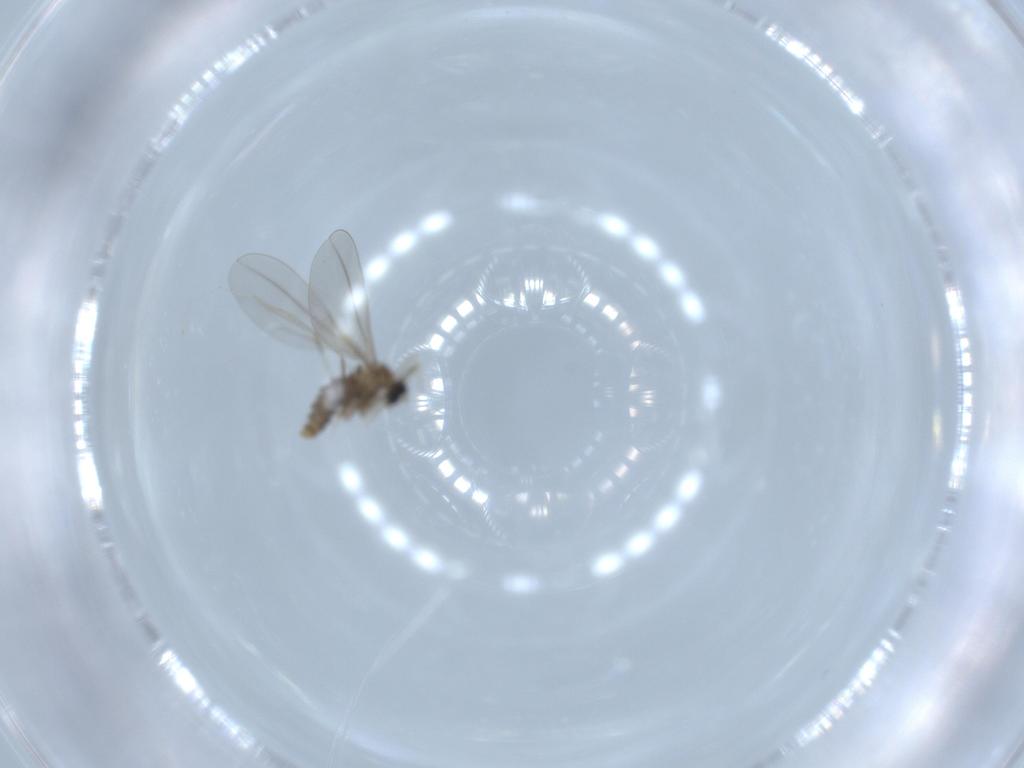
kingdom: Animalia
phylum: Arthropoda
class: Insecta
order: Diptera
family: Cecidomyiidae
